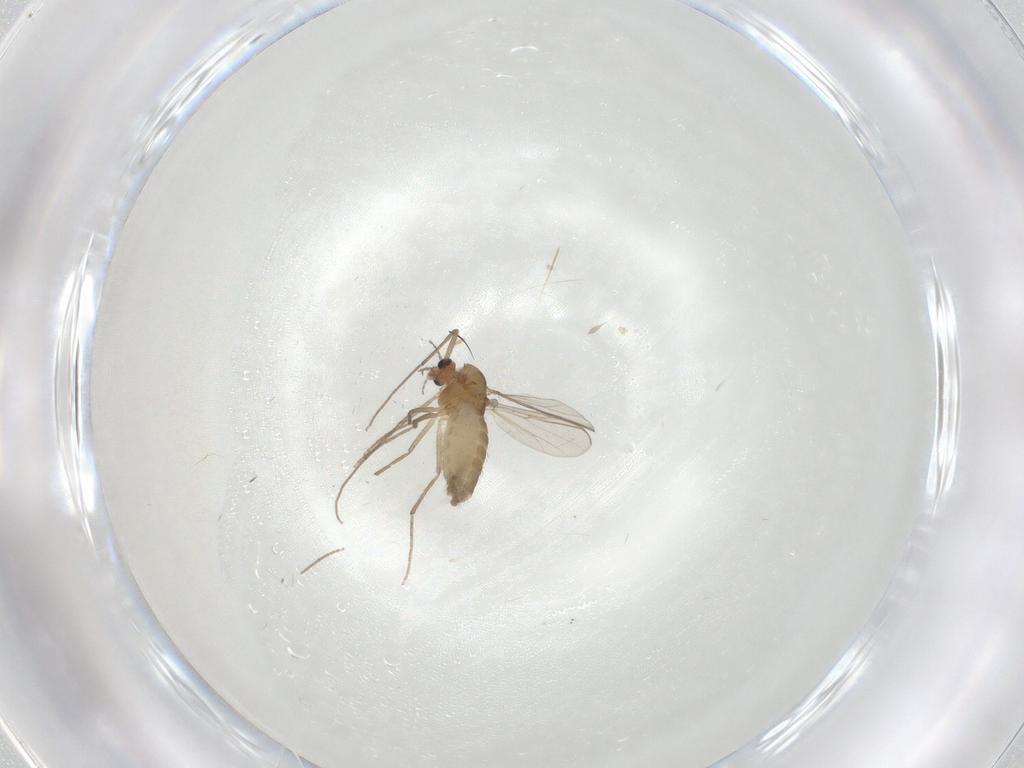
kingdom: Animalia
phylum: Arthropoda
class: Insecta
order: Diptera
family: Chironomidae
